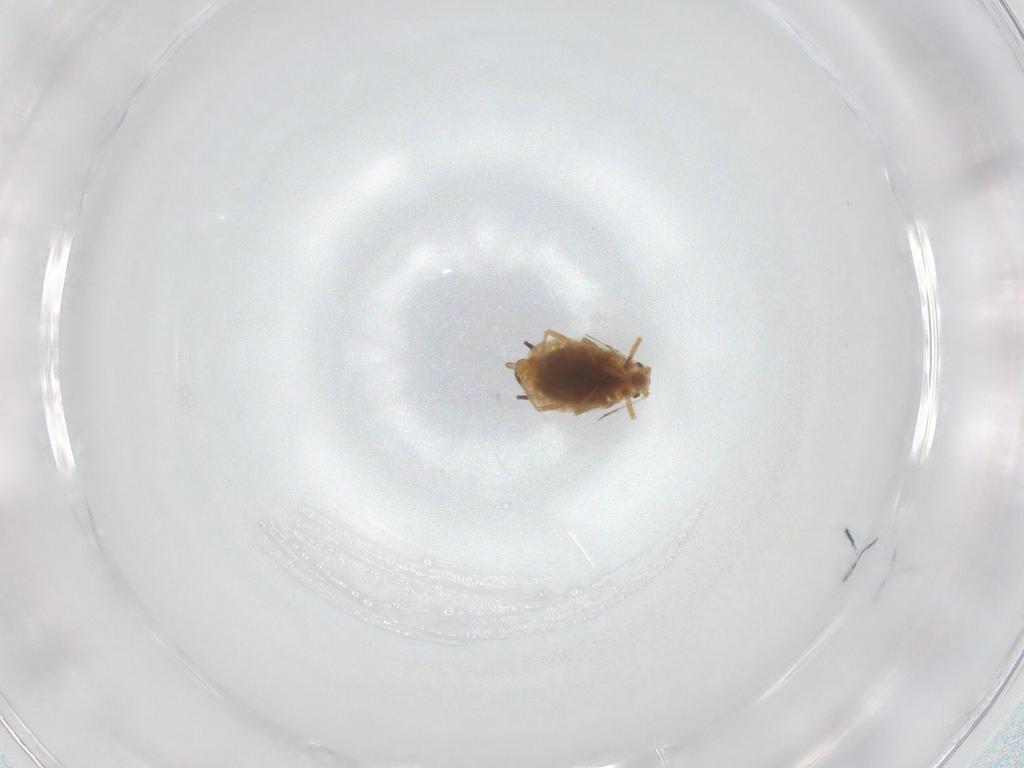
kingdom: Animalia
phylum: Arthropoda
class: Insecta
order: Hemiptera
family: Aphididae
